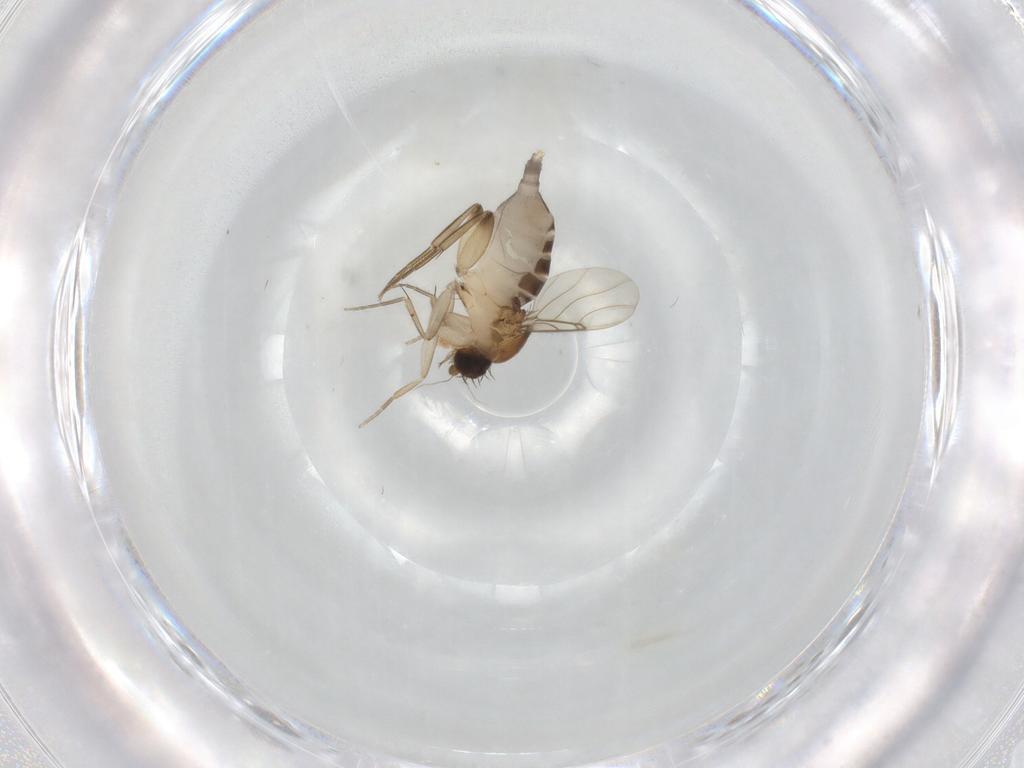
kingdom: Animalia
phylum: Arthropoda
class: Insecta
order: Diptera
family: Phoridae
